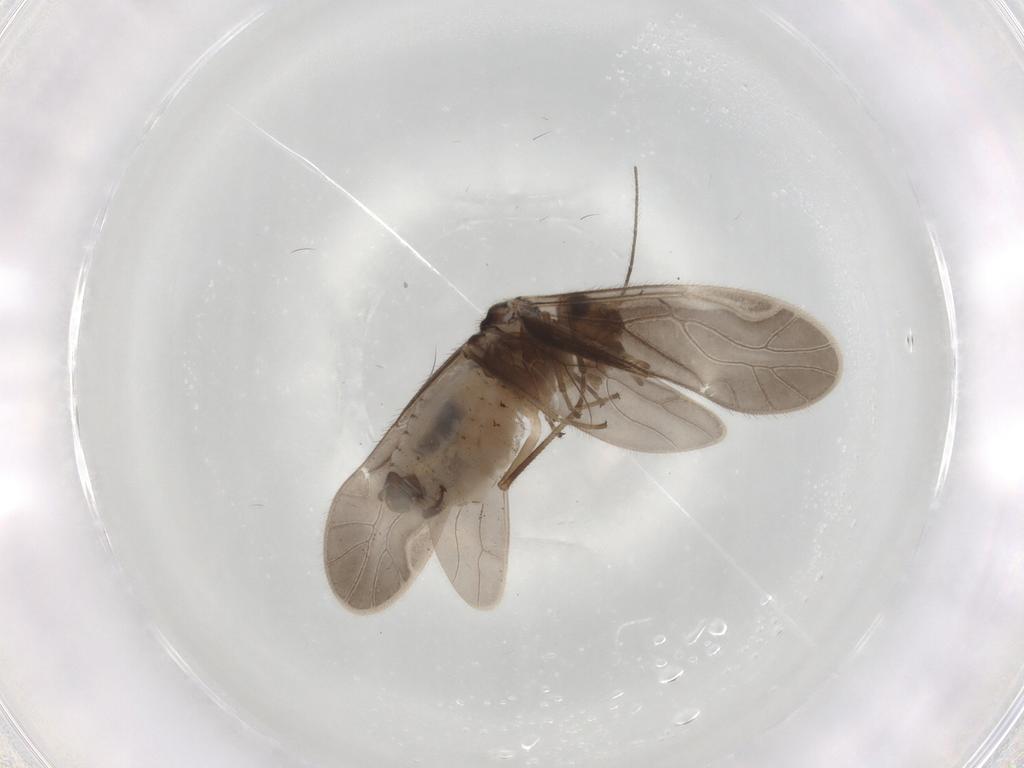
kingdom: Animalia
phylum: Arthropoda
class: Insecta
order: Psocodea
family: Caeciliusidae
